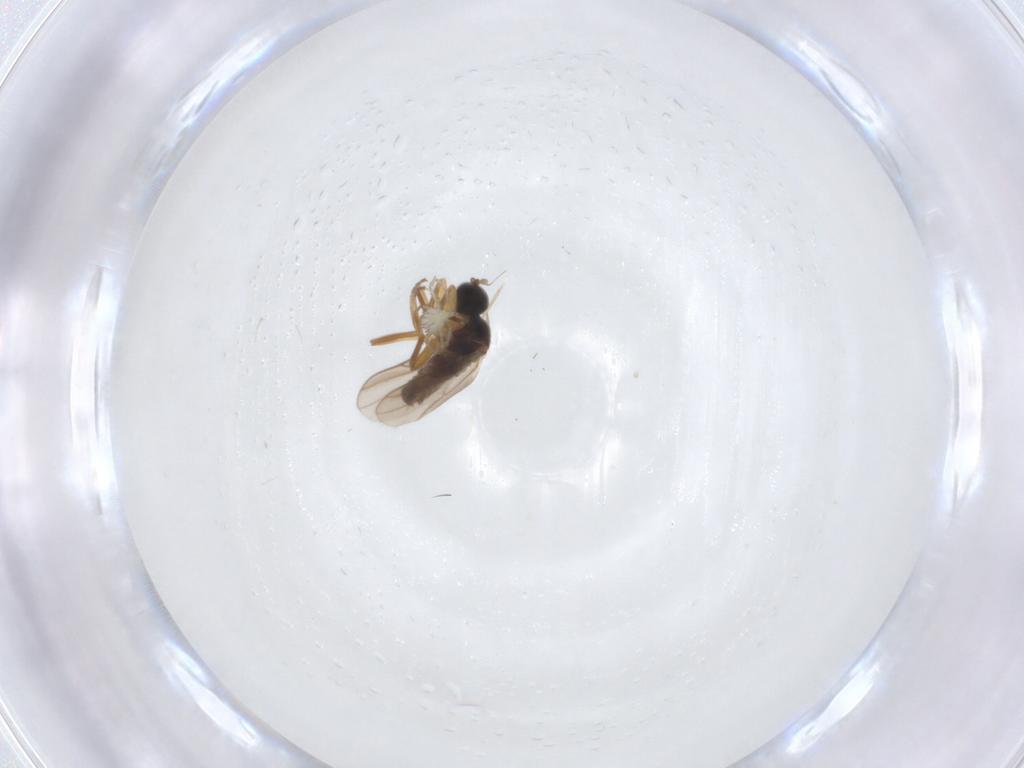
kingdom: Animalia
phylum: Arthropoda
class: Insecta
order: Diptera
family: Hybotidae
